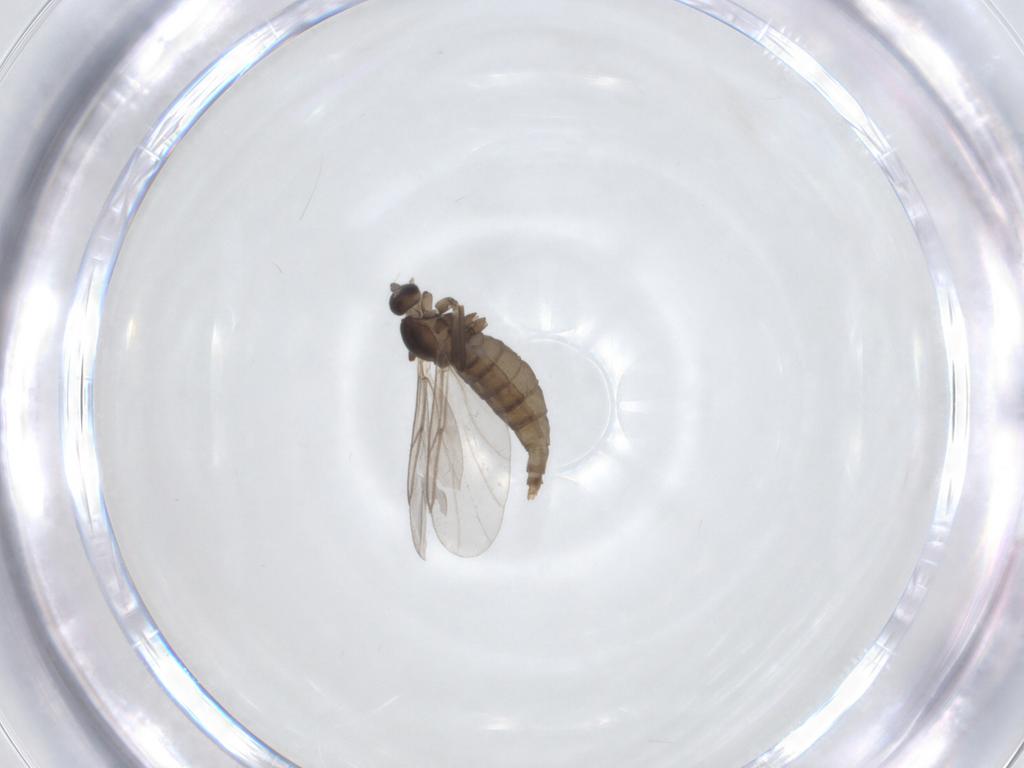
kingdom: Animalia
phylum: Arthropoda
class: Insecta
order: Diptera
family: Cecidomyiidae
